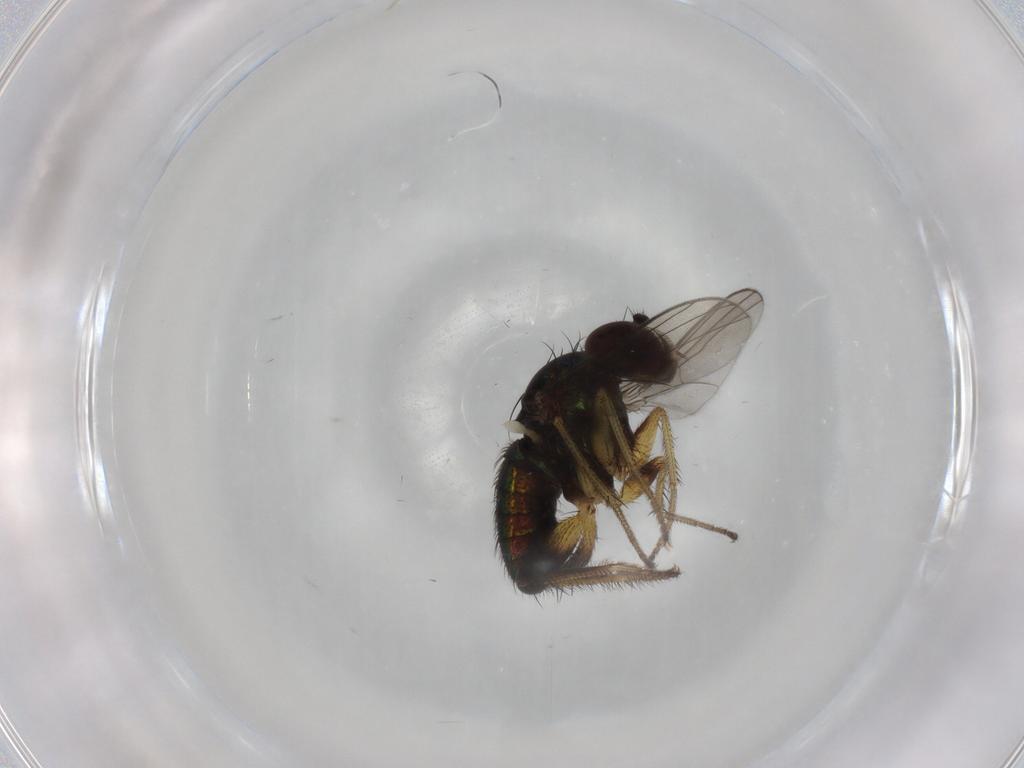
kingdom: Animalia
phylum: Arthropoda
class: Insecta
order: Diptera
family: Dolichopodidae
